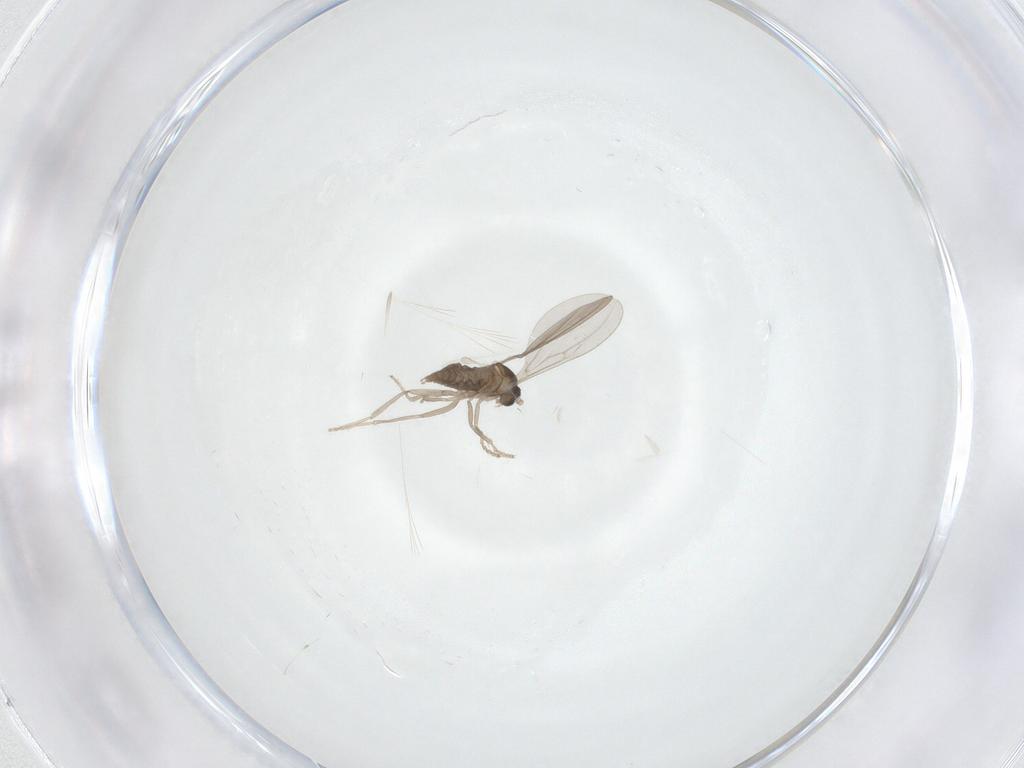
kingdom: Animalia
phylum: Arthropoda
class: Insecta
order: Diptera
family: Cecidomyiidae
